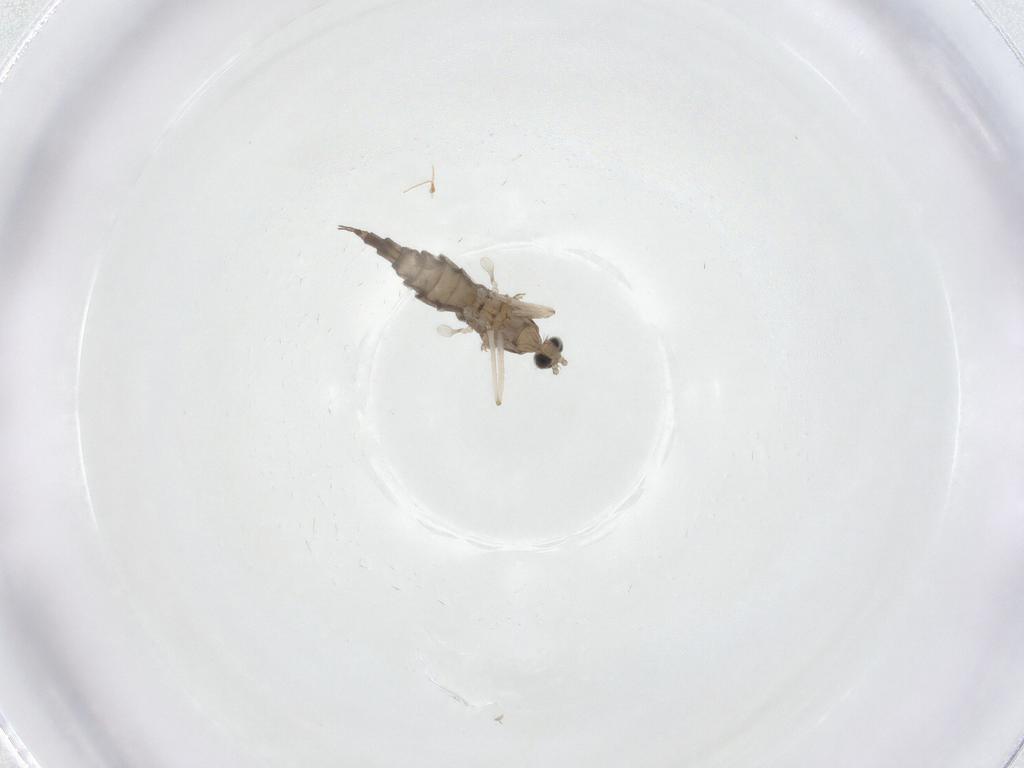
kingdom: Animalia
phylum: Arthropoda
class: Insecta
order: Diptera
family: Cecidomyiidae
